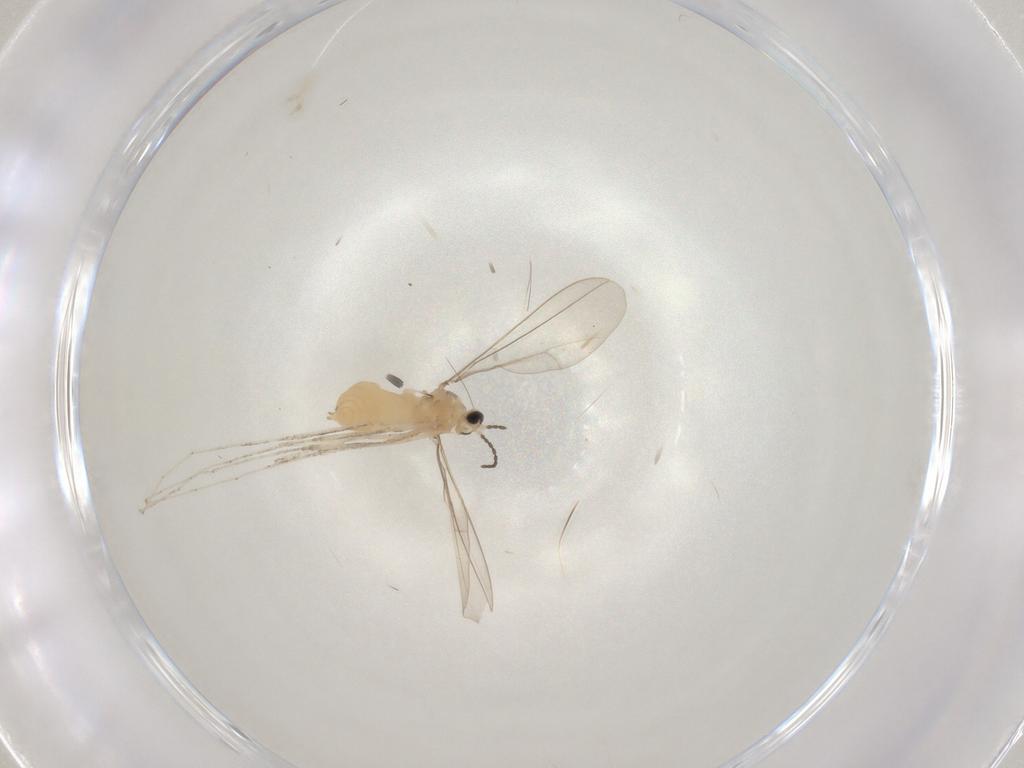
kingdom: Animalia
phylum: Arthropoda
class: Insecta
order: Diptera
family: Cecidomyiidae
